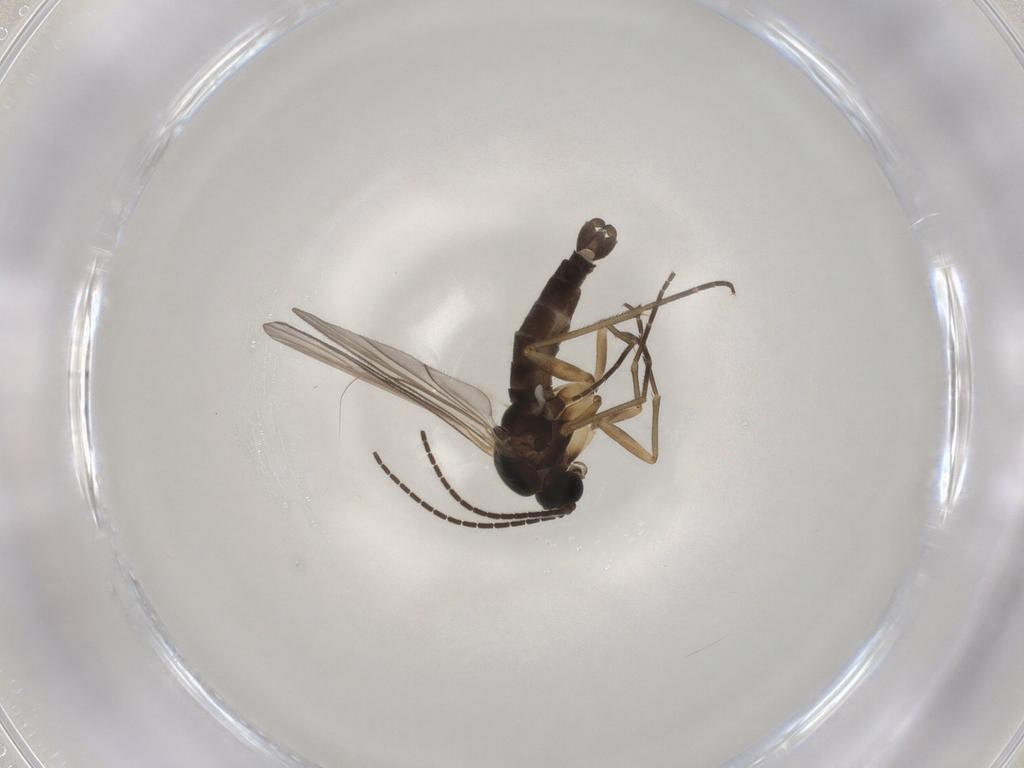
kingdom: Animalia
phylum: Arthropoda
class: Insecta
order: Diptera
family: Sciaridae
